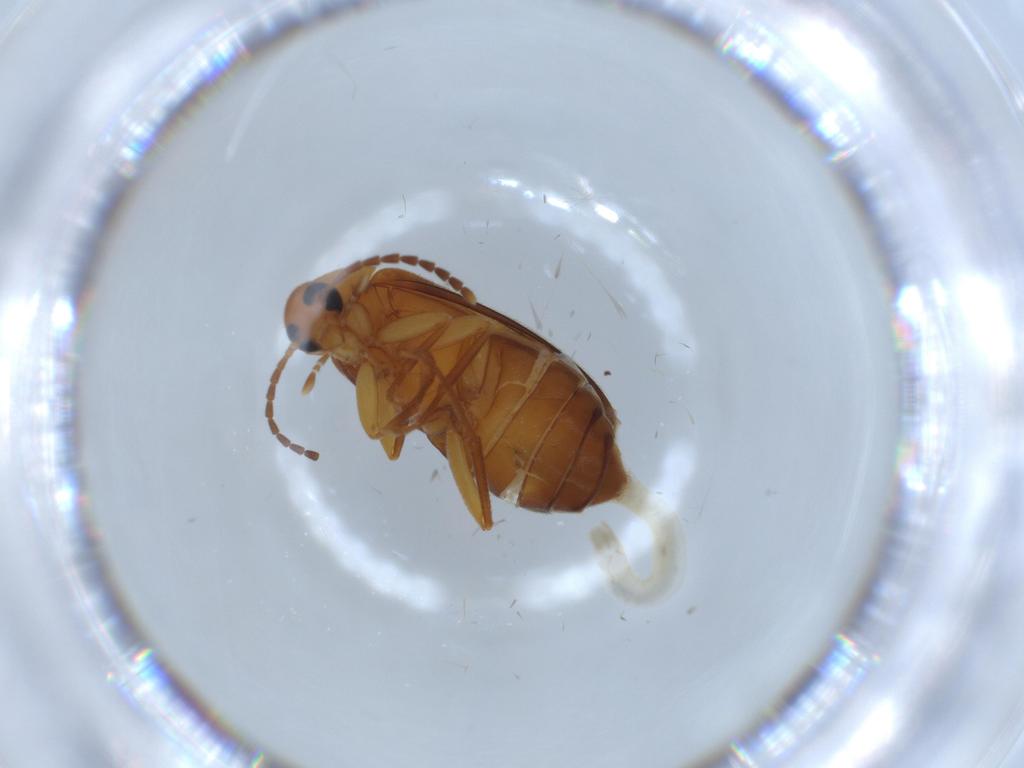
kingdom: Animalia
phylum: Arthropoda
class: Insecta
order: Coleoptera
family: Scraptiidae
